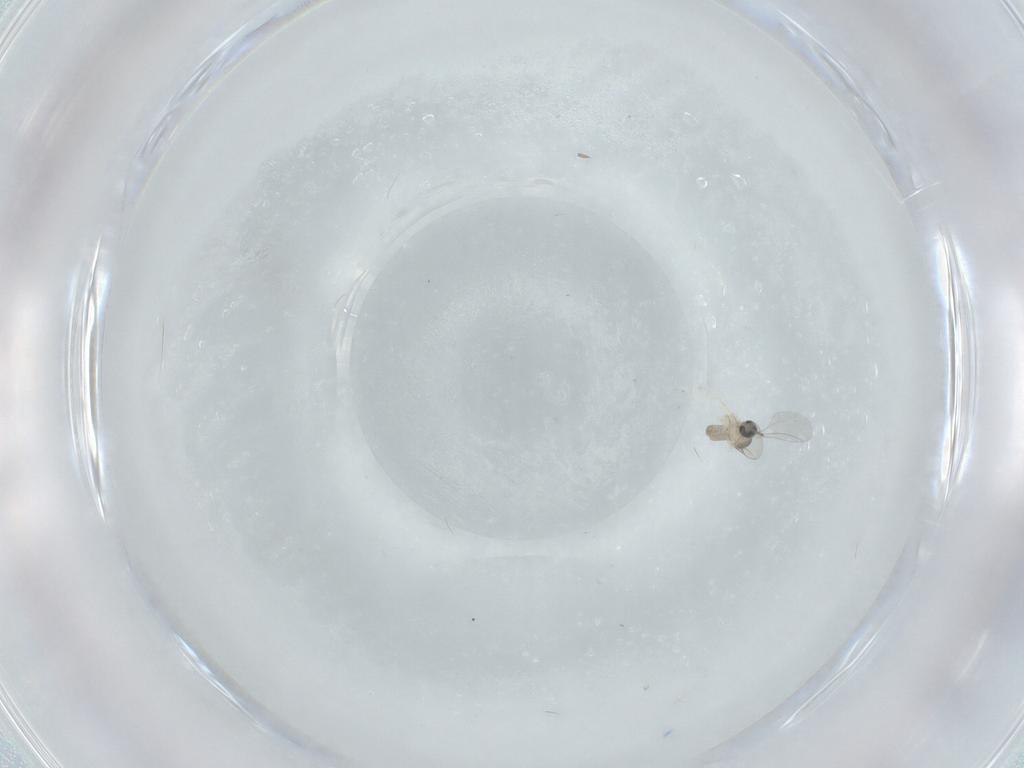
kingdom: Animalia
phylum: Arthropoda
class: Insecta
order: Diptera
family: Cecidomyiidae
